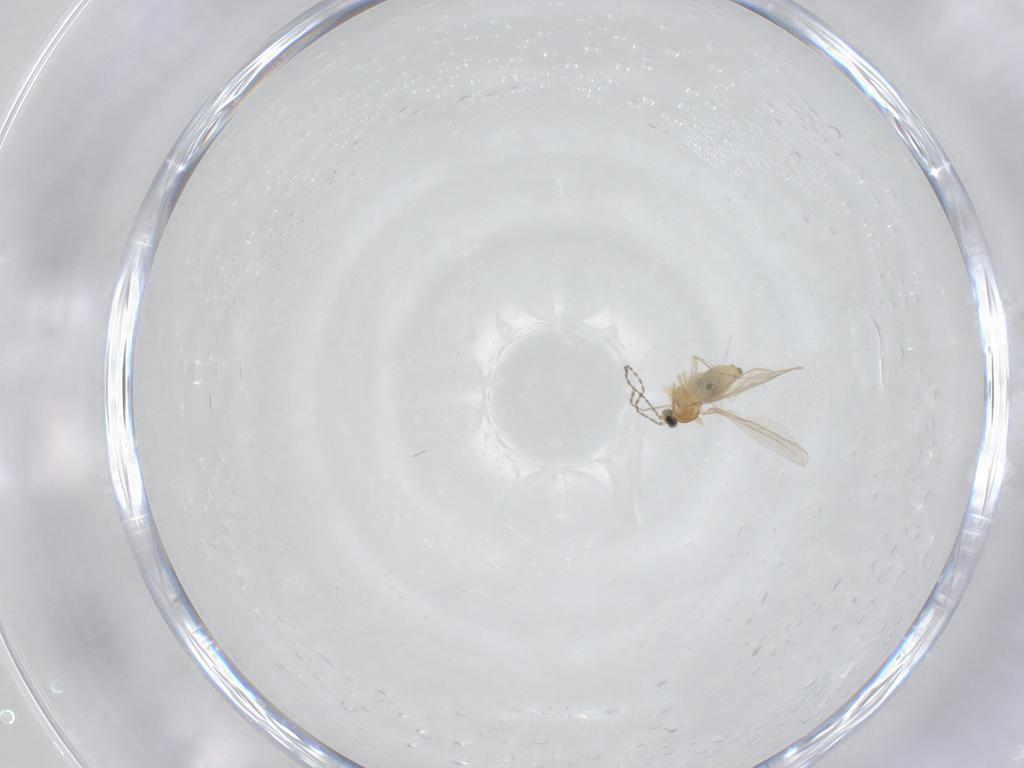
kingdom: Animalia
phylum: Arthropoda
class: Insecta
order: Diptera
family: Cecidomyiidae
